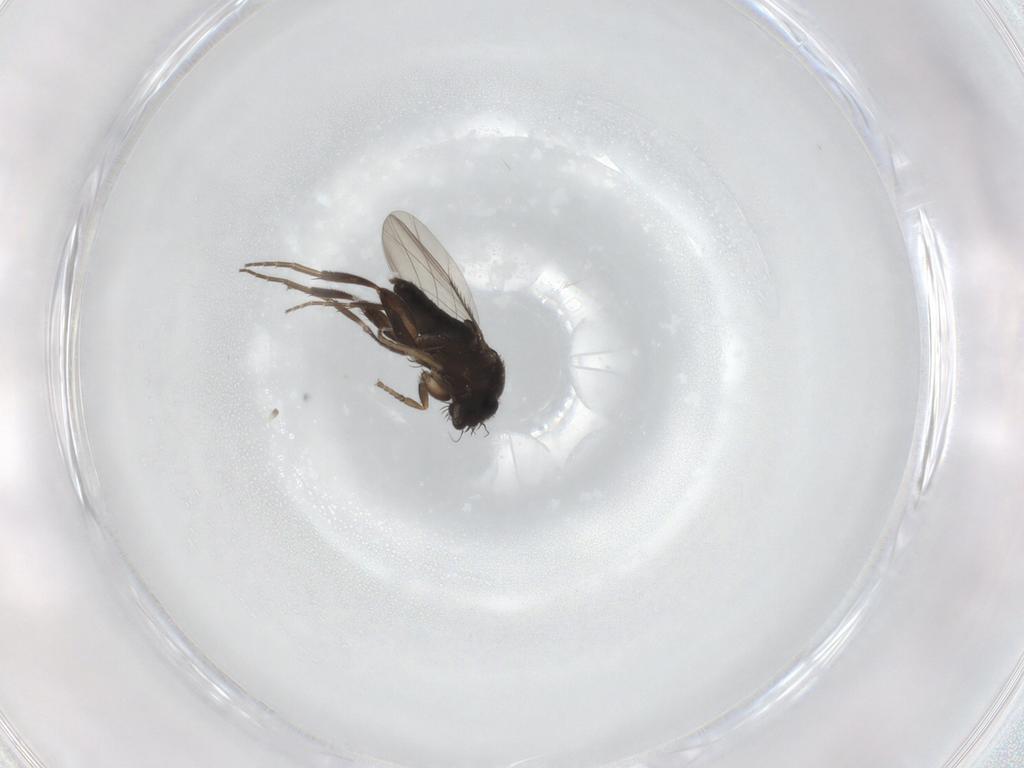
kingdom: Animalia
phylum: Arthropoda
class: Insecta
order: Diptera
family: Phoridae
